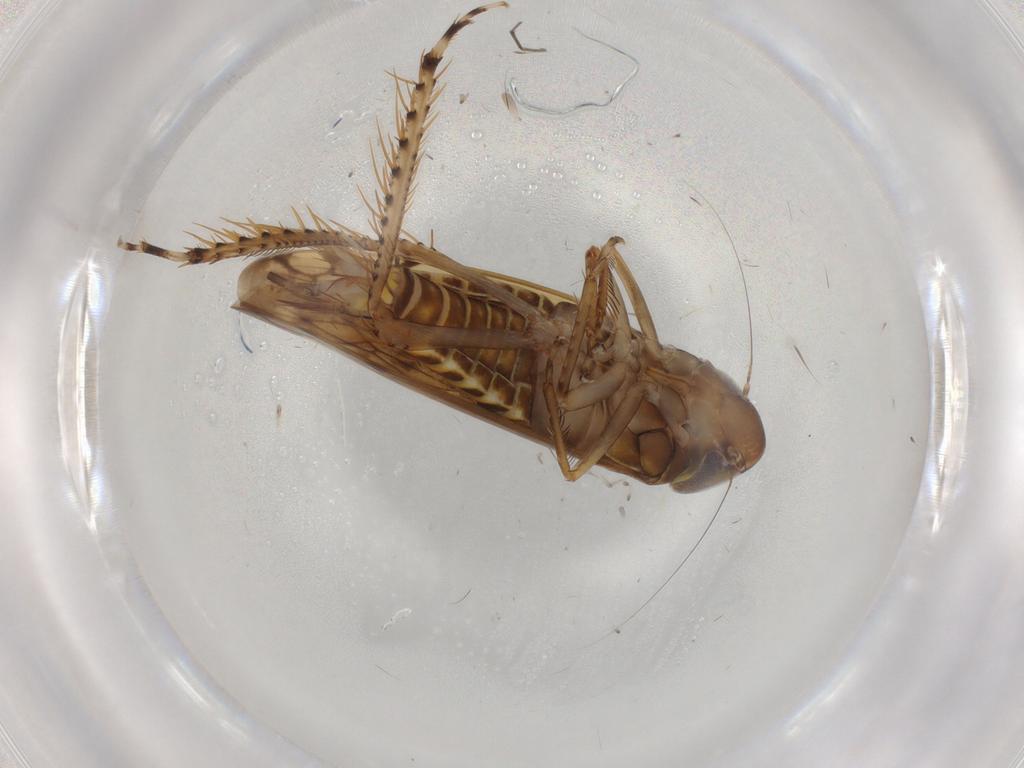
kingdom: Animalia
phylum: Arthropoda
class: Insecta
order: Hemiptera
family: Cicadellidae
